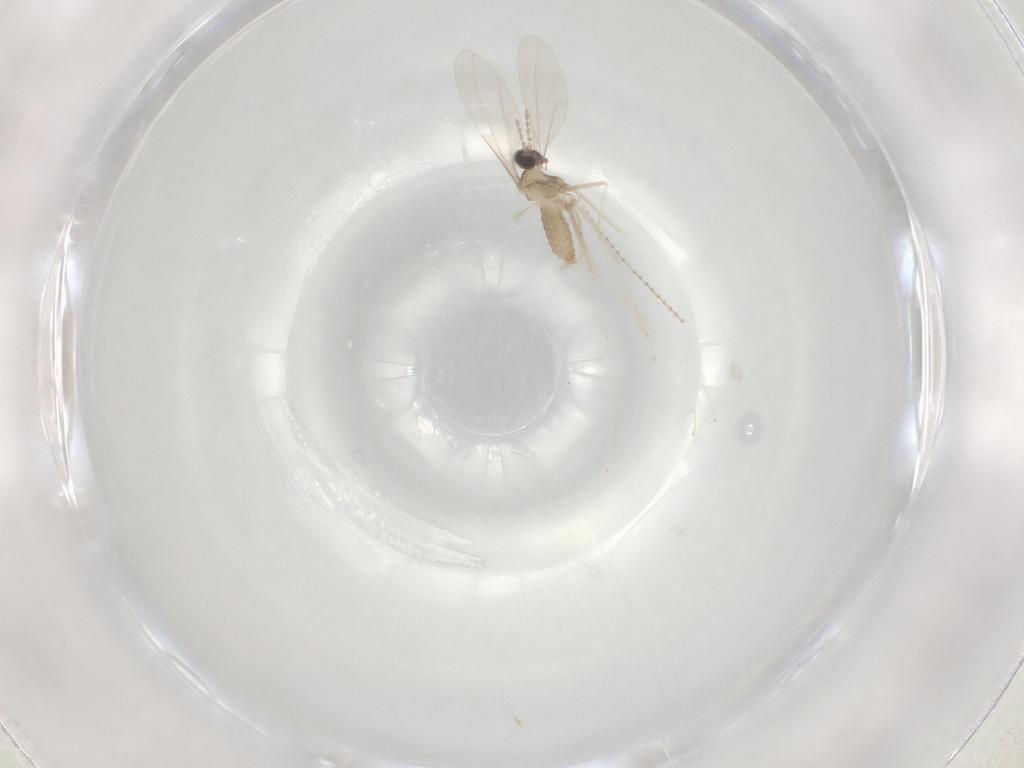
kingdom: Animalia
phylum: Arthropoda
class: Insecta
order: Diptera
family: Cecidomyiidae
